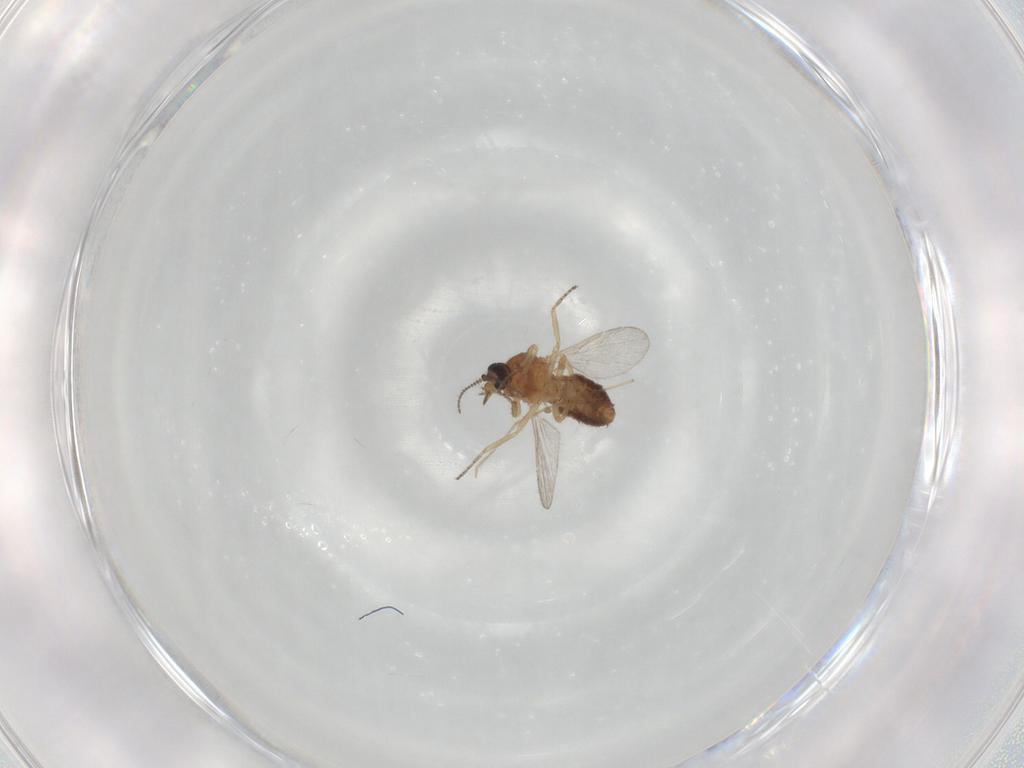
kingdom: Animalia
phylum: Arthropoda
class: Insecta
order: Diptera
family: Ceratopogonidae
